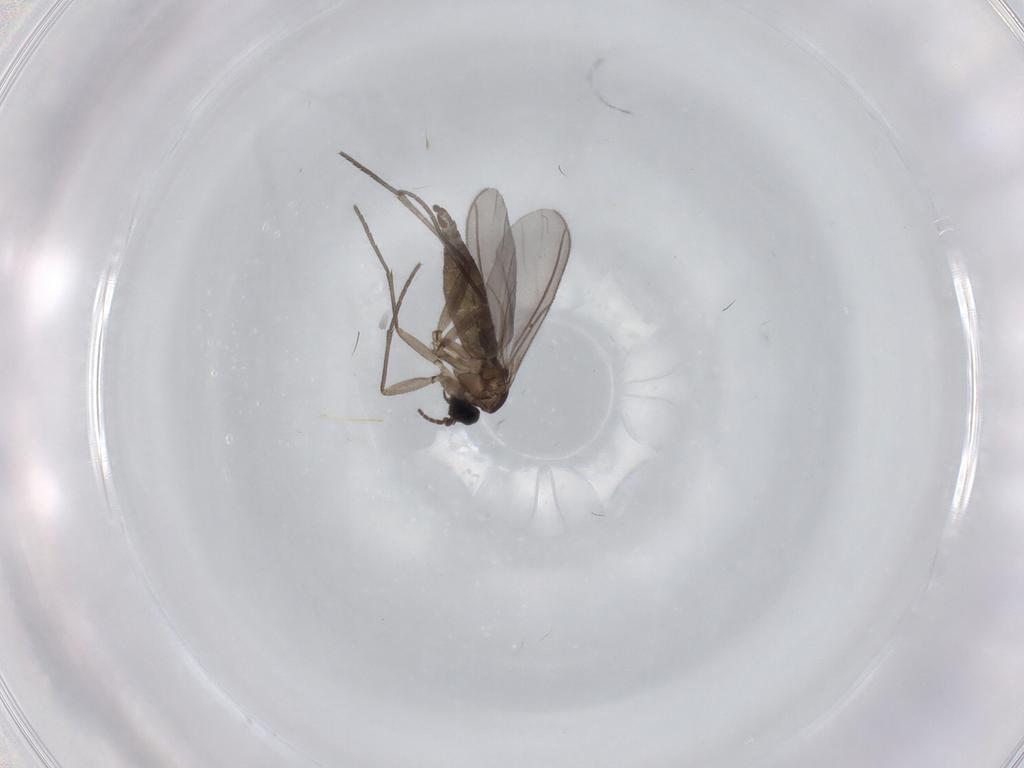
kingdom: Animalia
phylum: Arthropoda
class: Insecta
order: Diptera
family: Sciaridae
